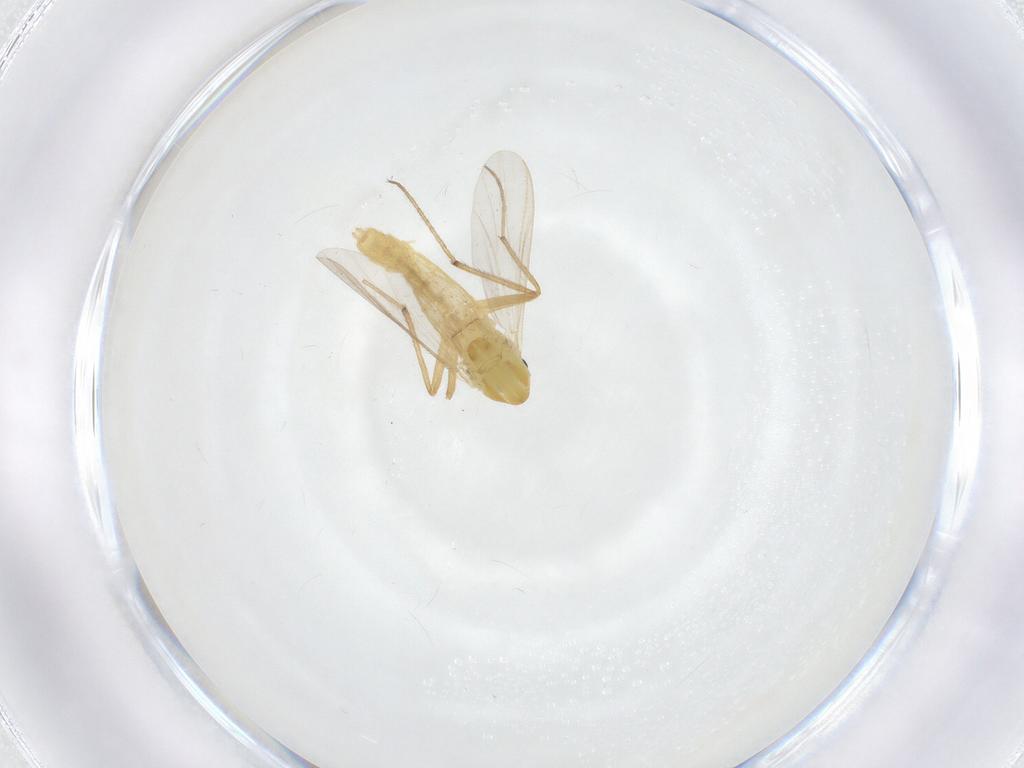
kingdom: Animalia
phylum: Arthropoda
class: Insecta
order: Diptera
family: Chironomidae
